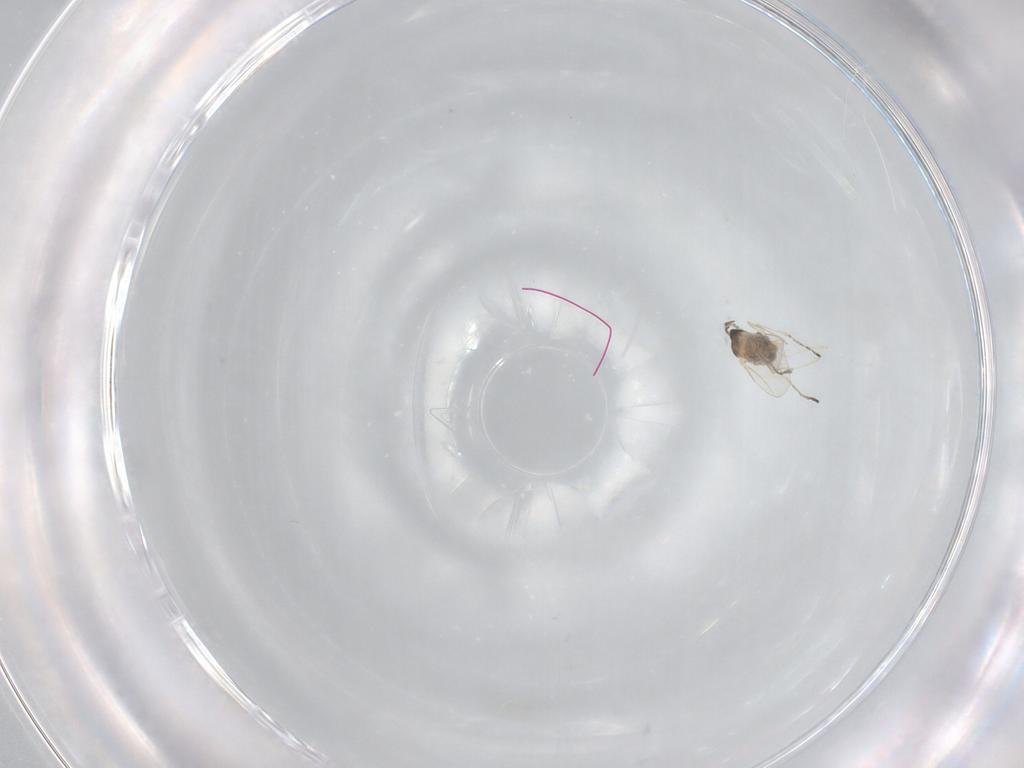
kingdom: Animalia
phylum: Arthropoda
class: Insecta
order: Diptera
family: Cecidomyiidae
